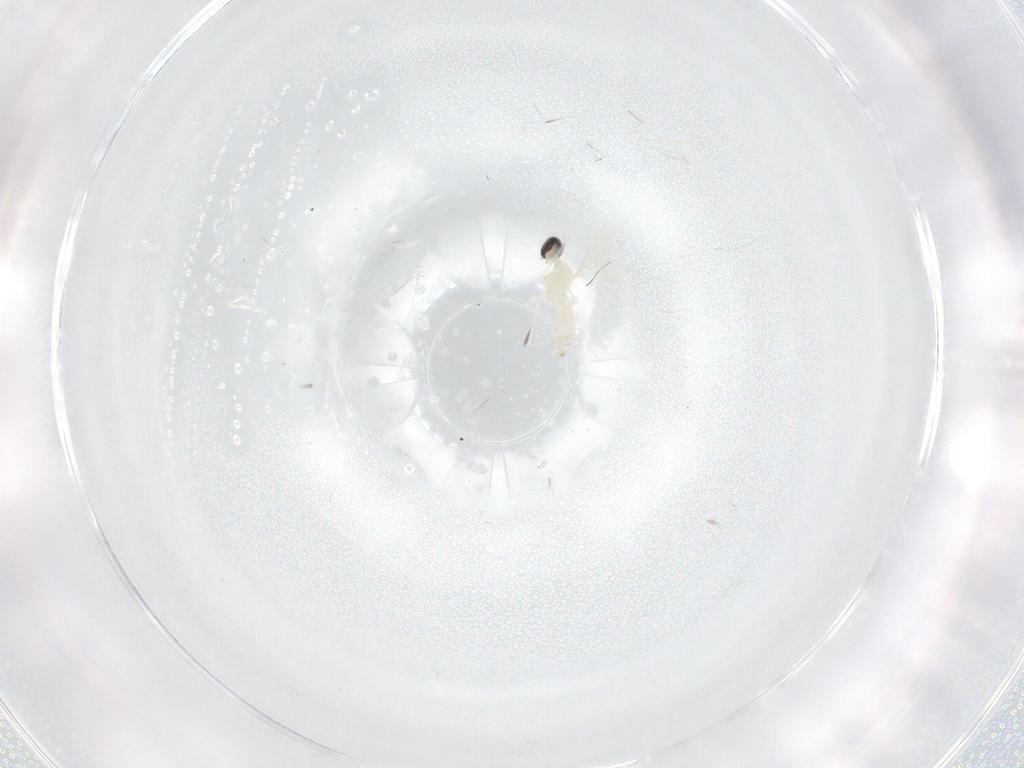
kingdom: Animalia
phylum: Arthropoda
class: Insecta
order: Diptera
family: Cecidomyiidae
